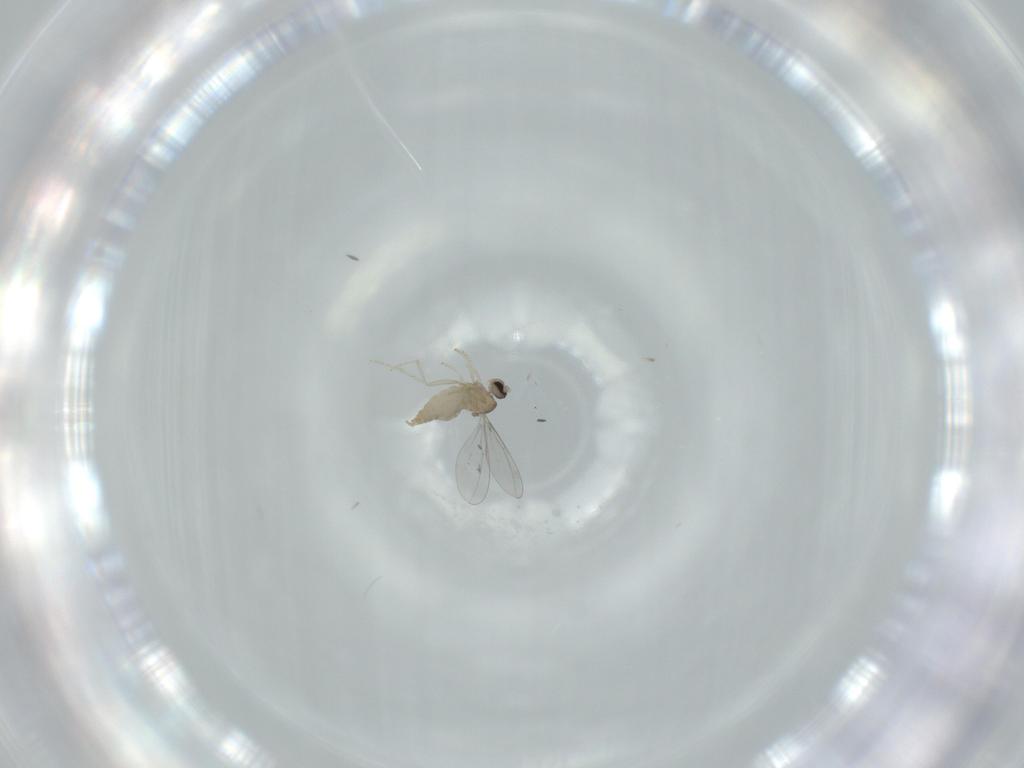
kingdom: Animalia
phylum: Arthropoda
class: Insecta
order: Diptera
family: Cecidomyiidae
